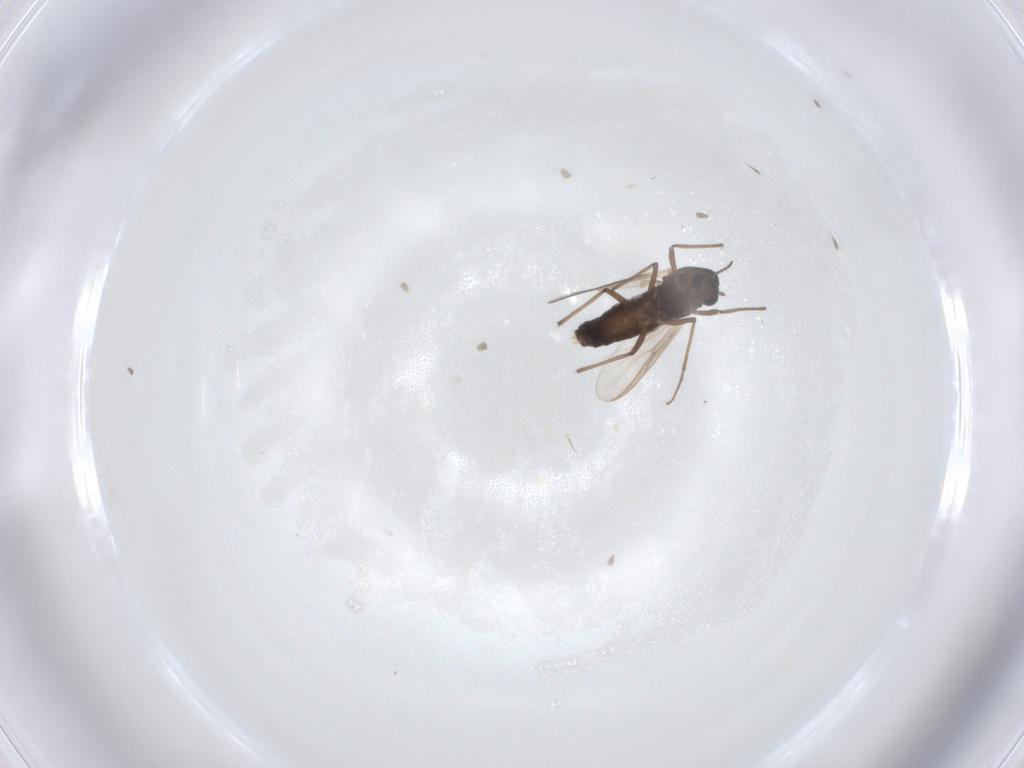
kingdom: Animalia
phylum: Arthropoda
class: Insecta
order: Diptera
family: Chironomidae
